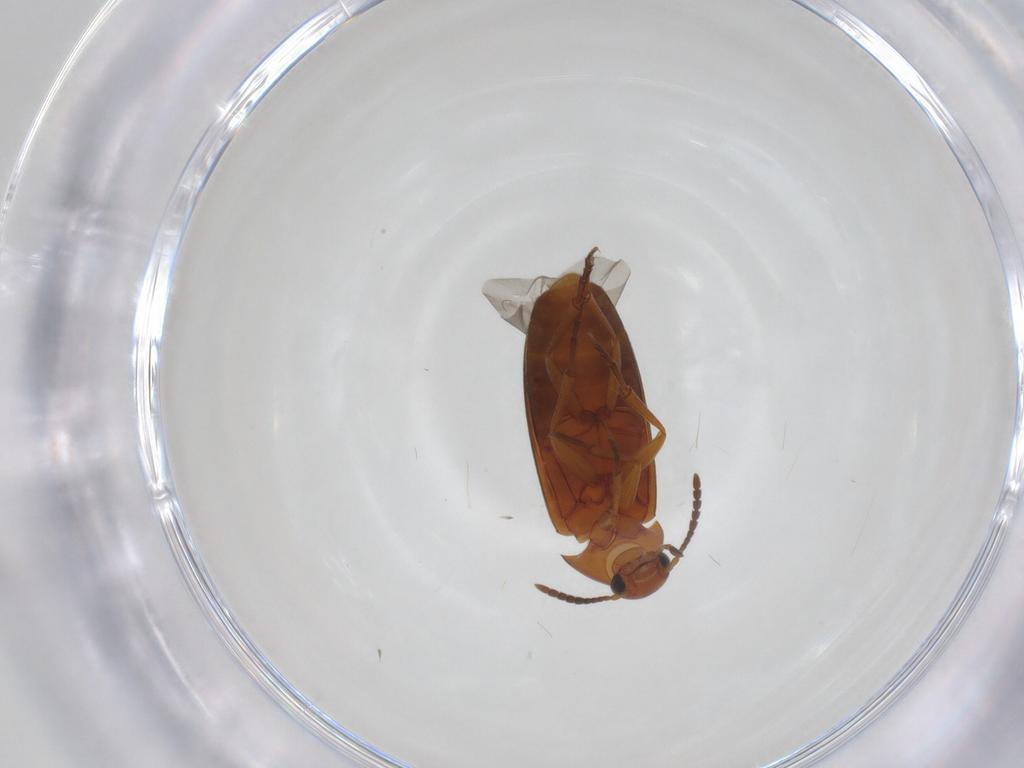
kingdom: Animalia
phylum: Arthropoda
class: Insecta
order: Coleoptera
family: Scraptiidae
